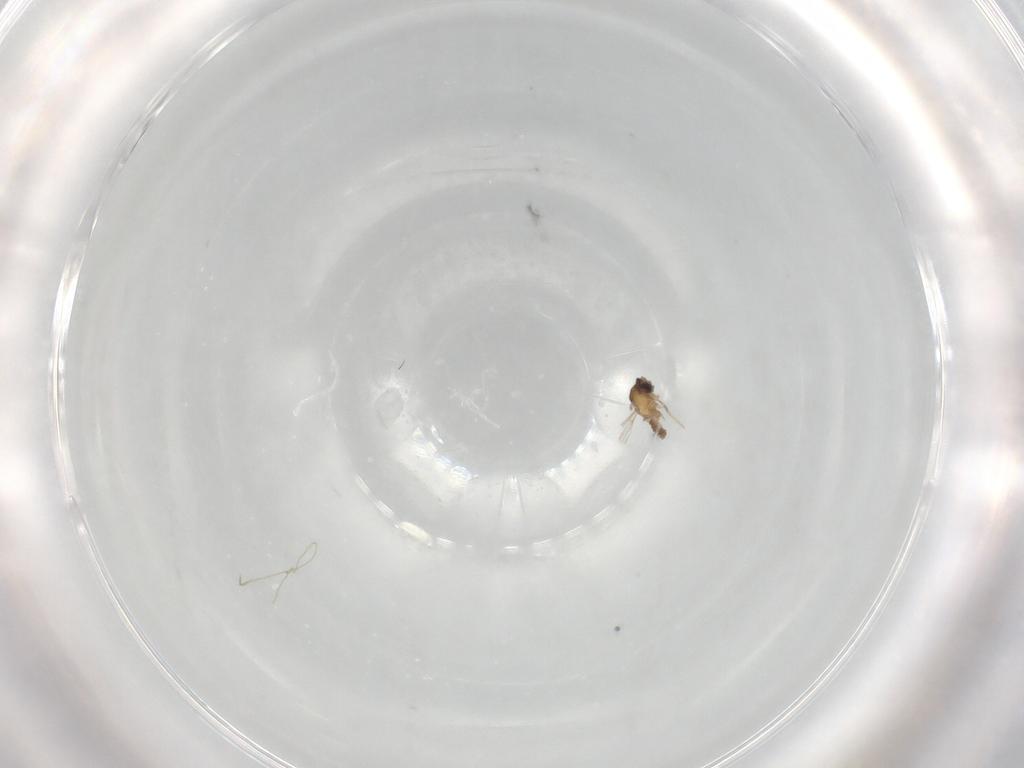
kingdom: Animalia
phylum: Arthropoda
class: Insecta
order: Diptera
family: Cecidomyiidae
